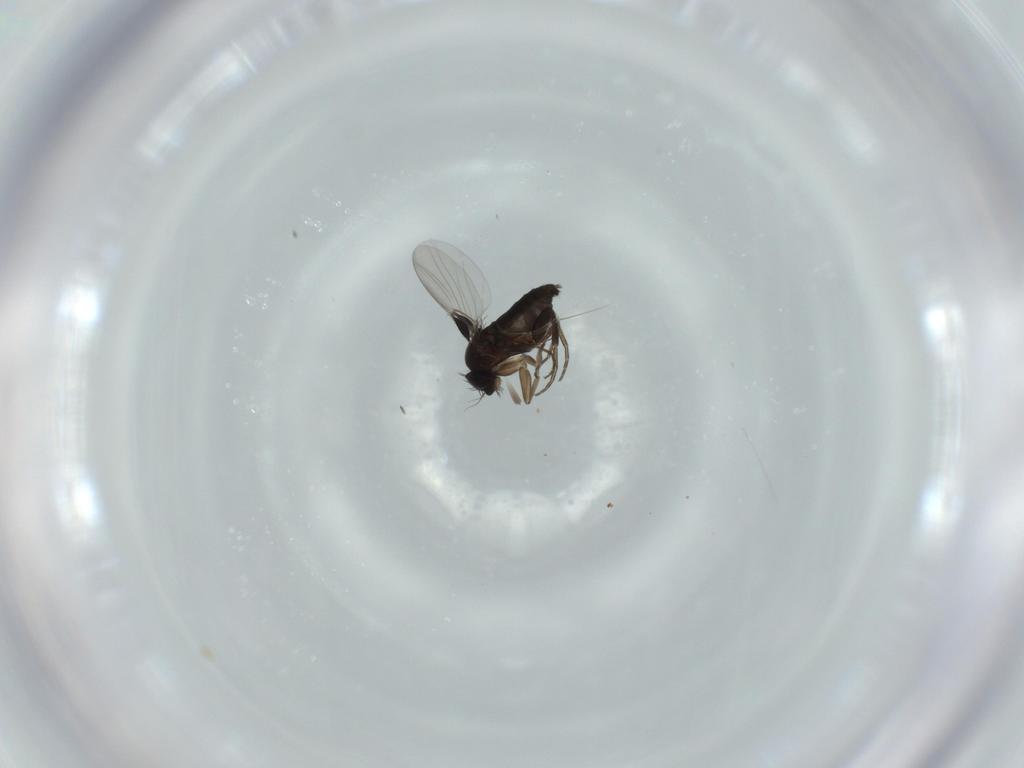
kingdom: Animalia
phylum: Arthropoda
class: Insecta
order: Diptera
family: Phoridae
